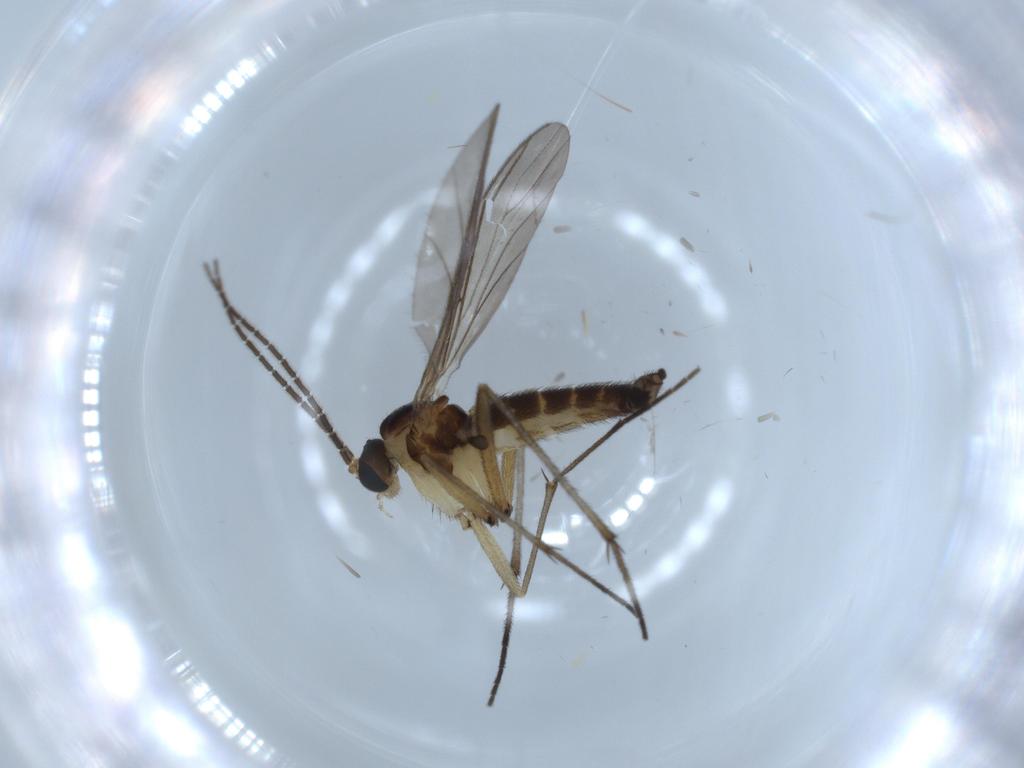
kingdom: Animalia
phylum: Arthropoda
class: Insecta
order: Diptera
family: Sciaridae
